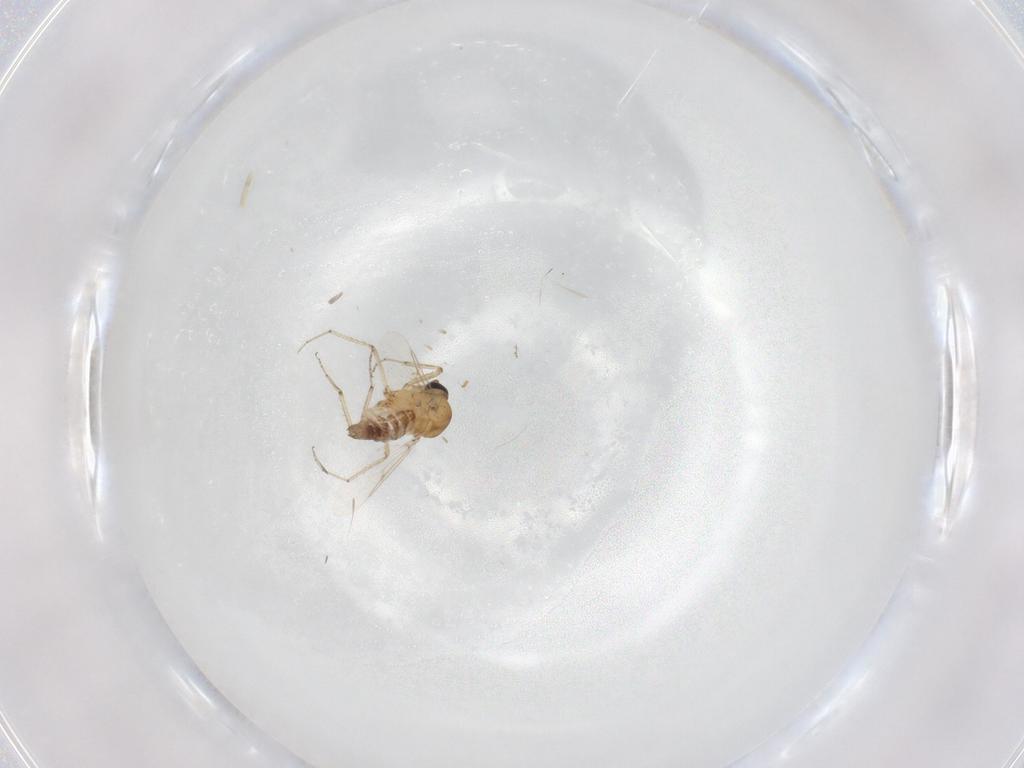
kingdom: Animalia
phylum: Arthropoda
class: Insecta
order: Diptera
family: Ceratopogonidae
